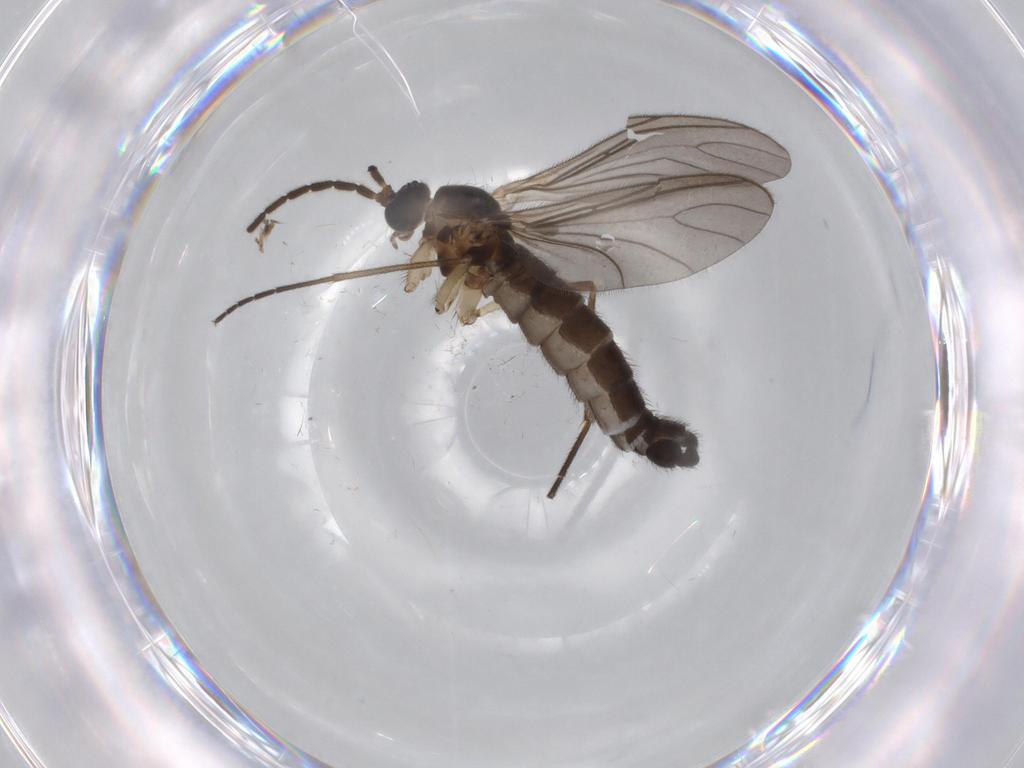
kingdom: Animalia
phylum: Arthropoda
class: Insecta
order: Diptera
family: Sciaridae
